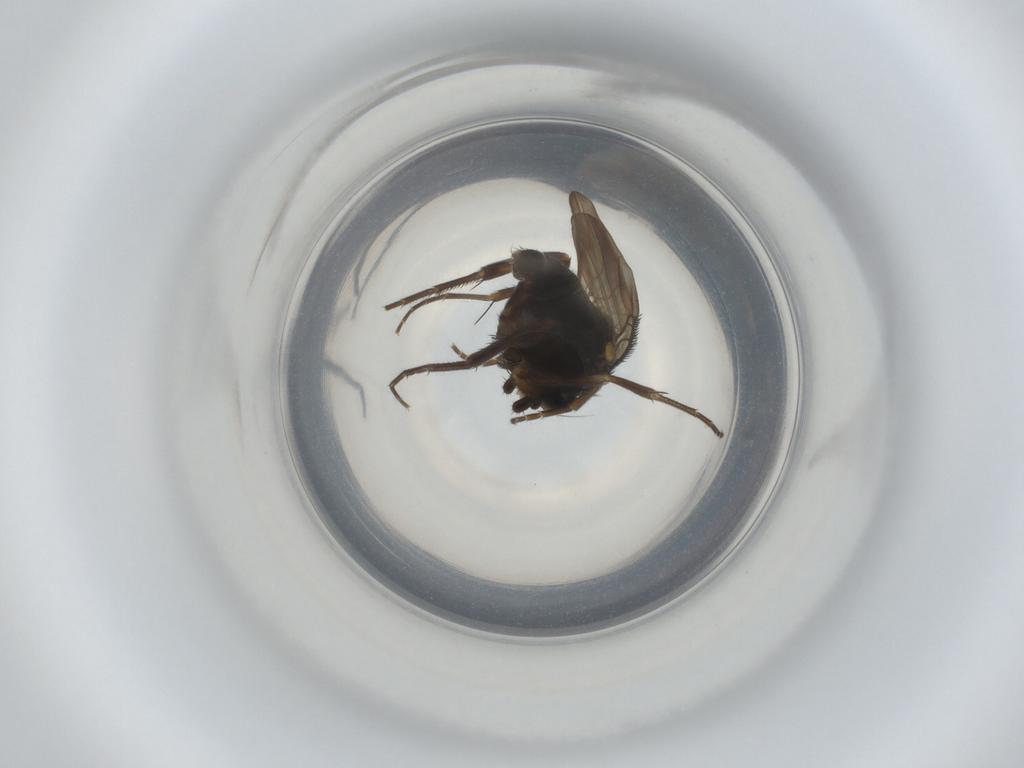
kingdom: Animalia
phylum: Arthropoda
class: Insecta
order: Diptera
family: Phoridae
